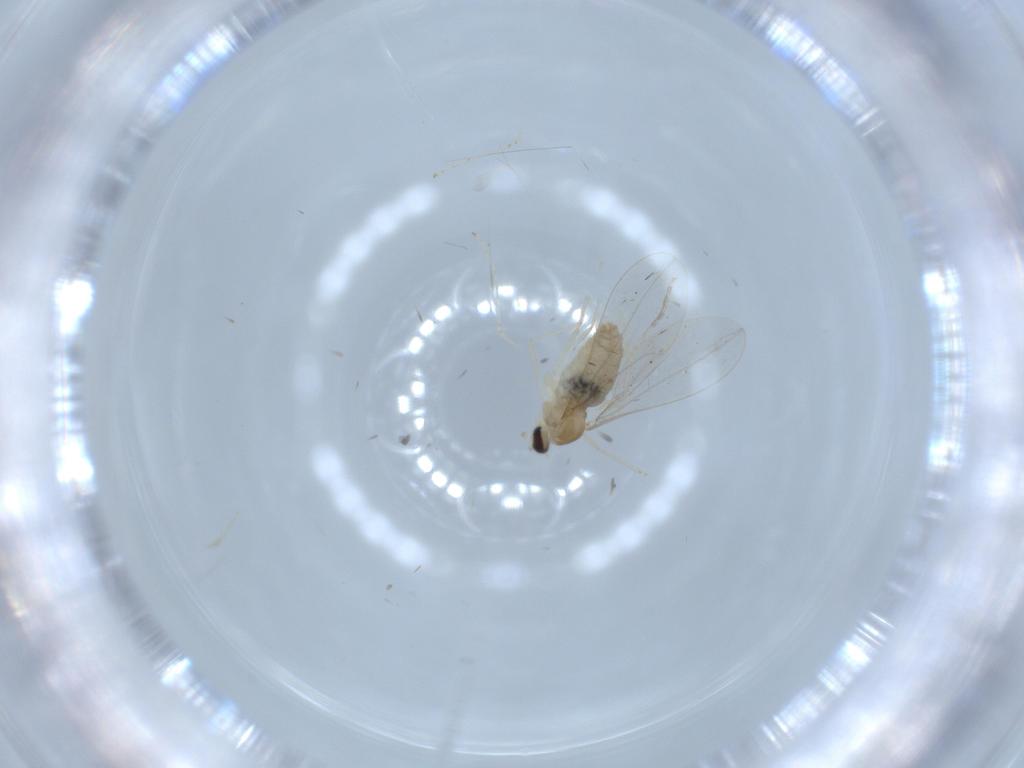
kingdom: Animalia
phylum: Arthropoda
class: Insecta
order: Diptera
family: Cecidomyiidae
